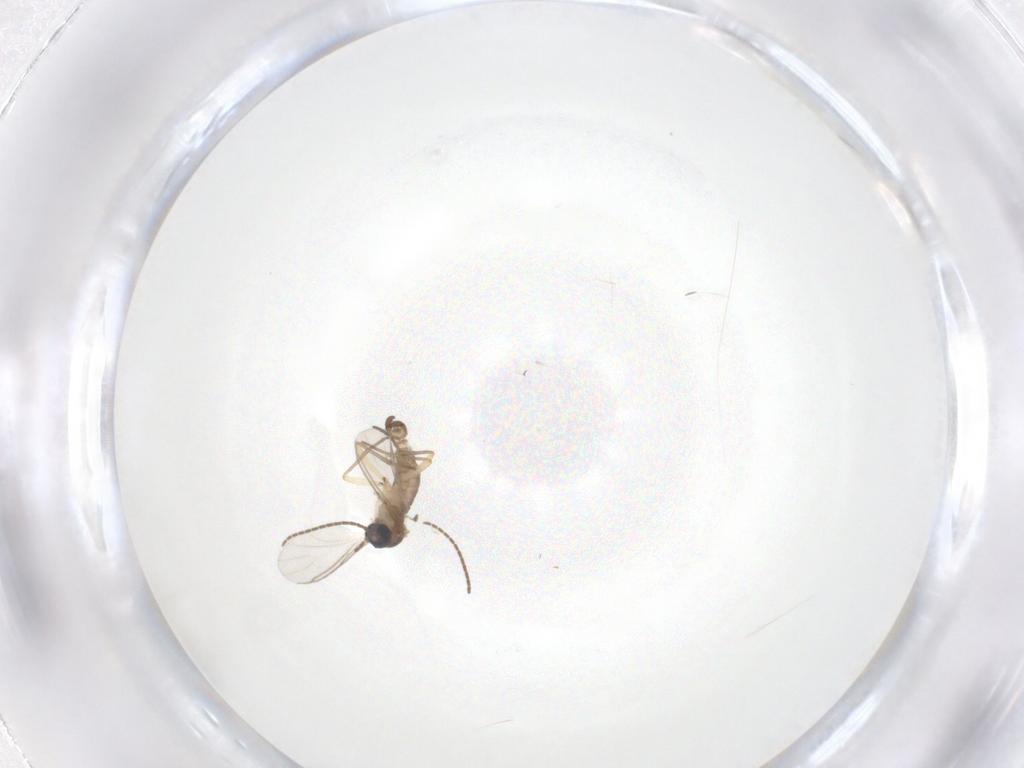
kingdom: Animalia
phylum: Arthropoda
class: Insecta
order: Diptera
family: Sciaridae
